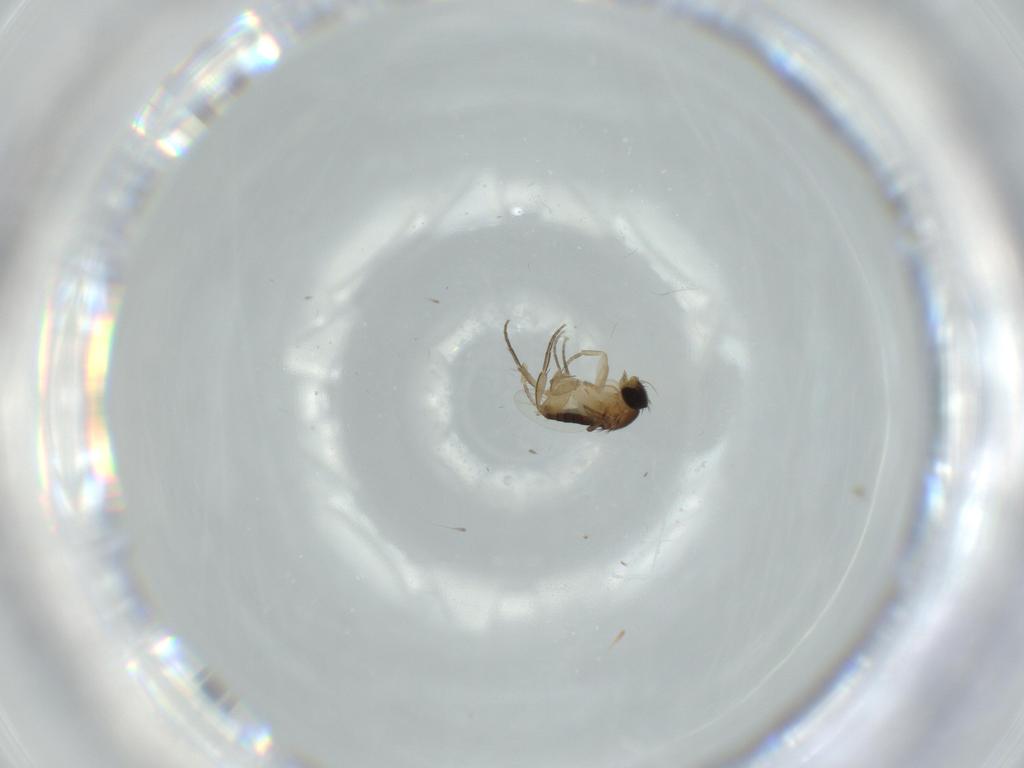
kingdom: Animalia
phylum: Arthropoda
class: Insecta
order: Diptera
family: Phoridae
